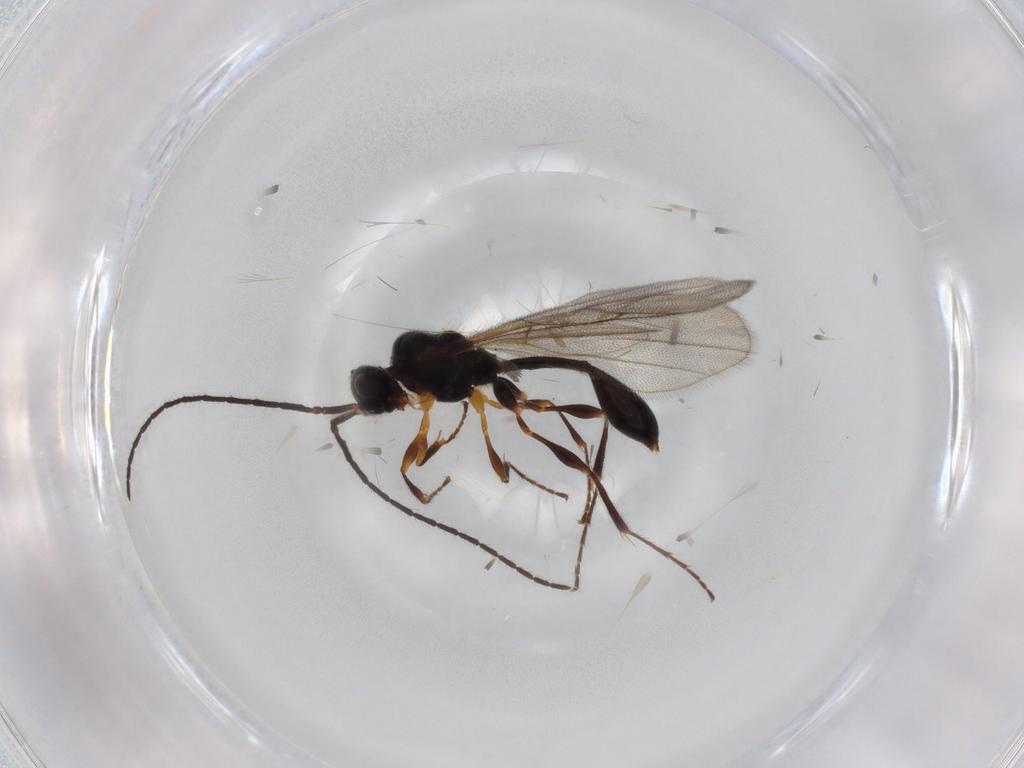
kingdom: Animalia
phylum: Arthropoda
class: Insecta
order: Hymenoptera
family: Diapriidae
